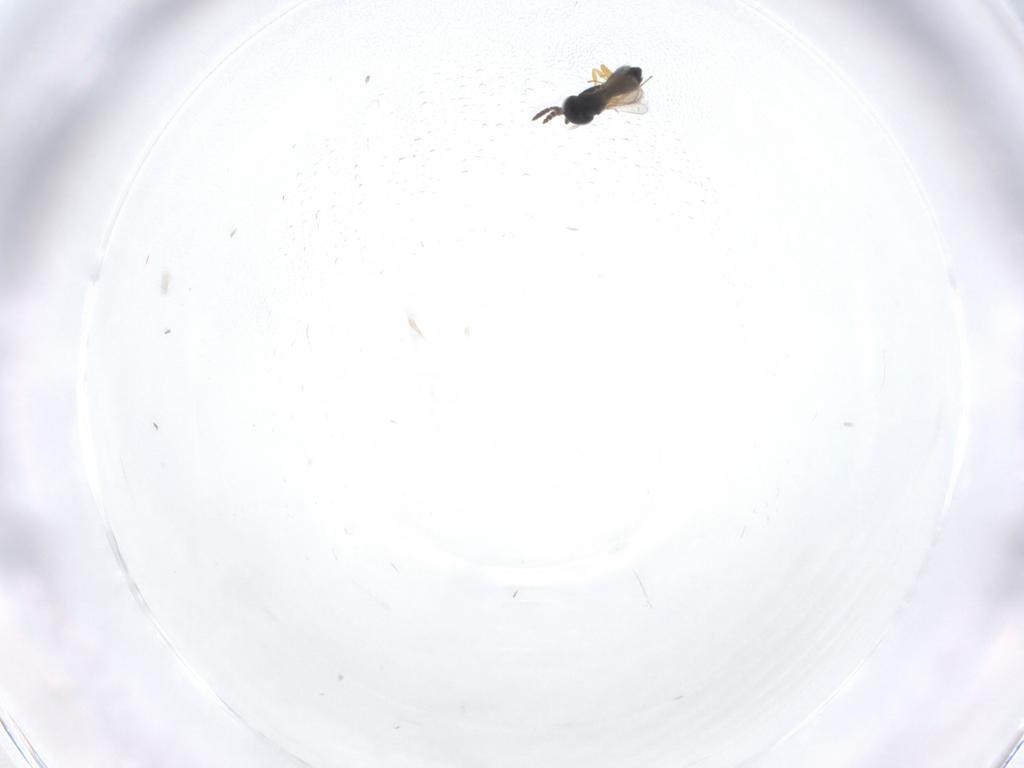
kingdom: Animalia
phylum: Arthropoda
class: Insecta
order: Hymenoptera
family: Scelionidae
